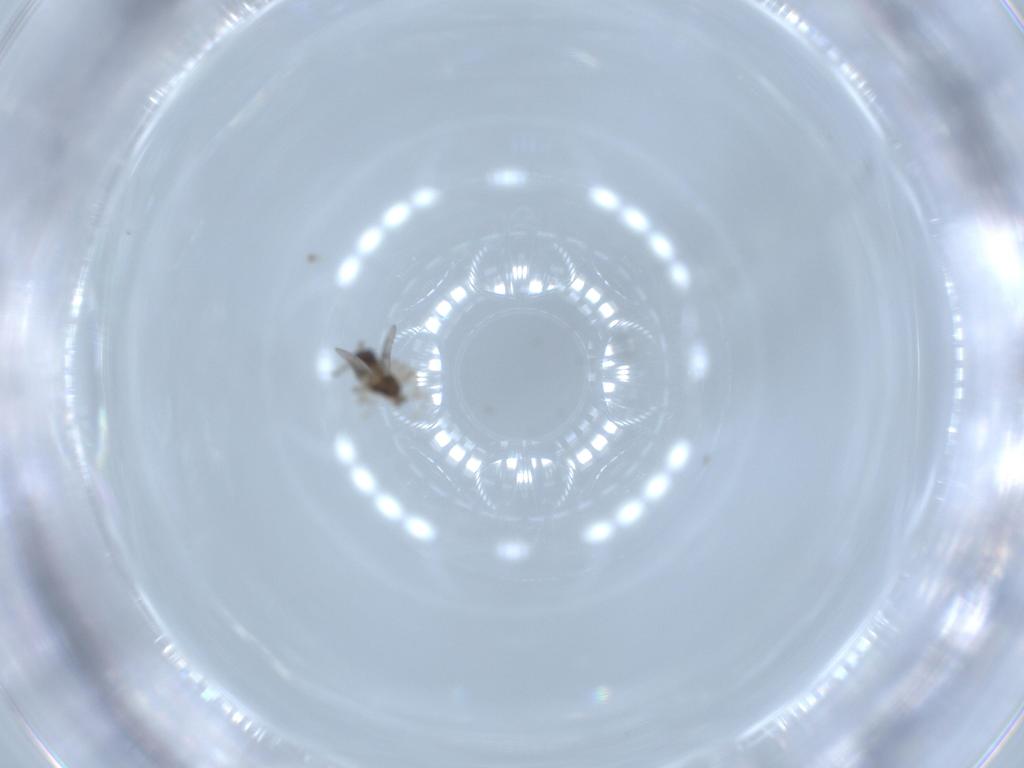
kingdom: Animalia
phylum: Arthropoda
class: Insecta
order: Diptera
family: Cecidomyiidae
